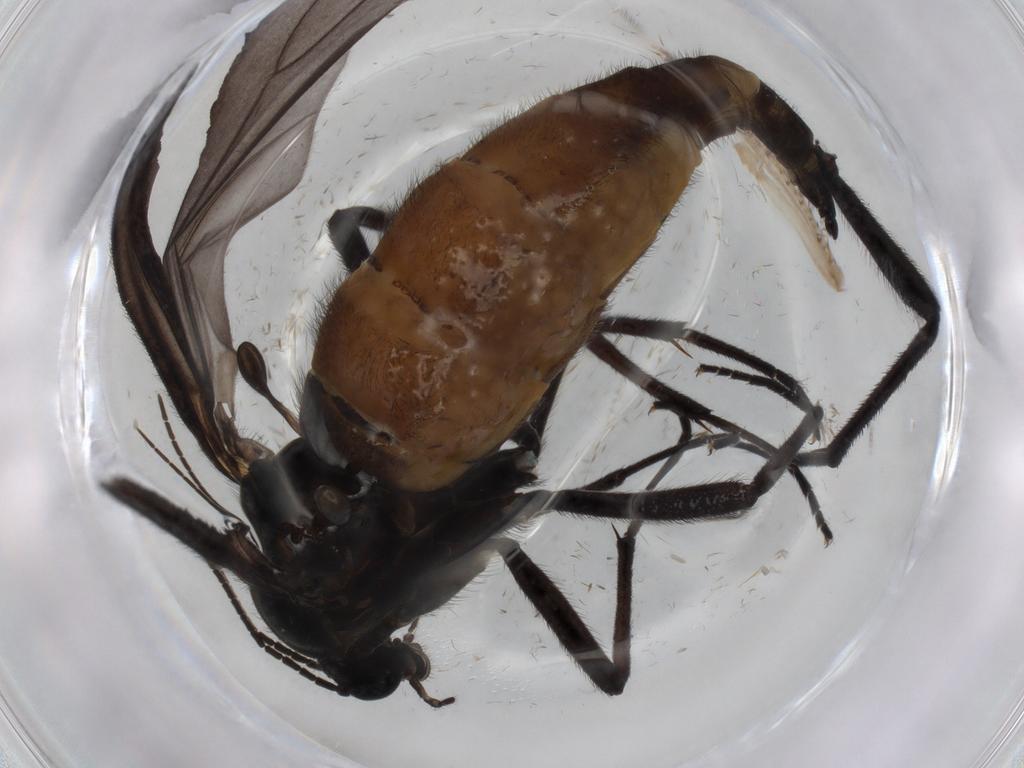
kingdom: Animalia
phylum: Arthropoda
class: Insecta
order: Diptera
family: Sciaridae
